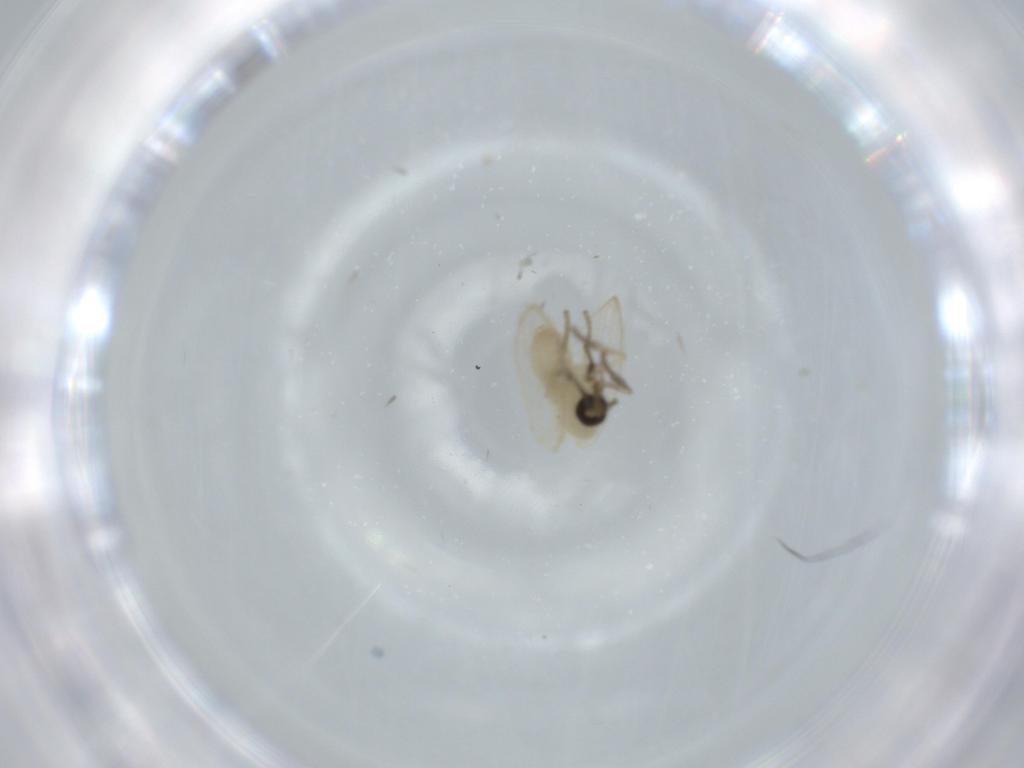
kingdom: Animalia
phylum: Arthropoda
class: Insecta
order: Diptera
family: Psychodidae
